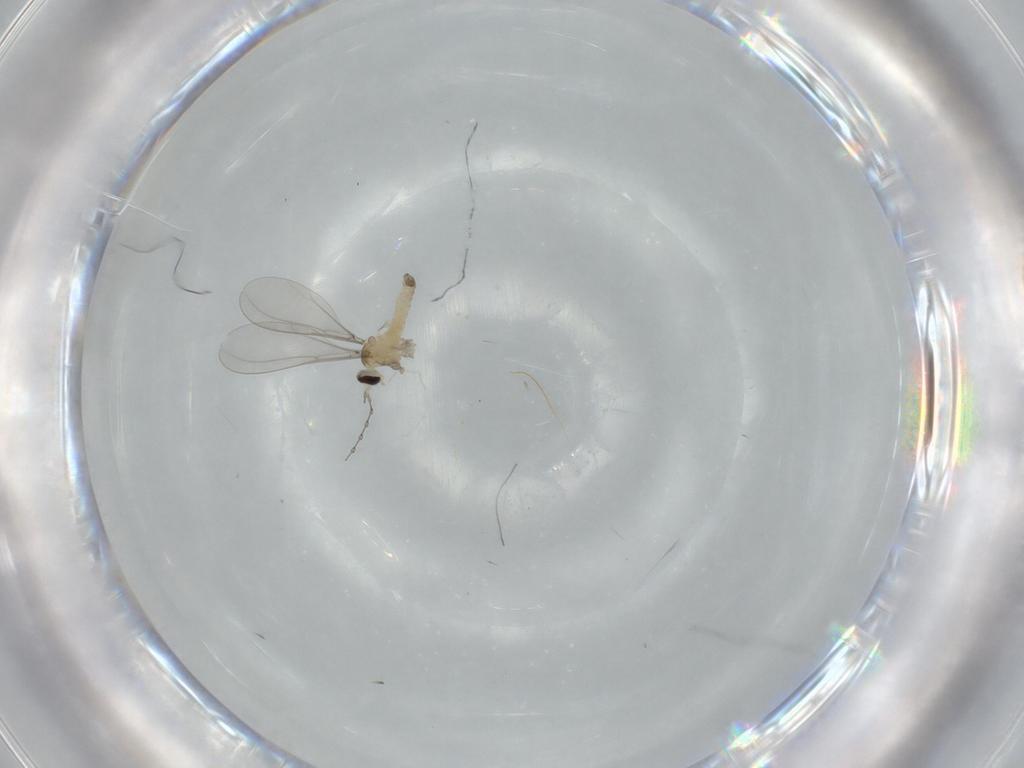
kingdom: Animalia
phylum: Arthropoda
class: Insecta
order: Diptera
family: Cecidomyiidae
